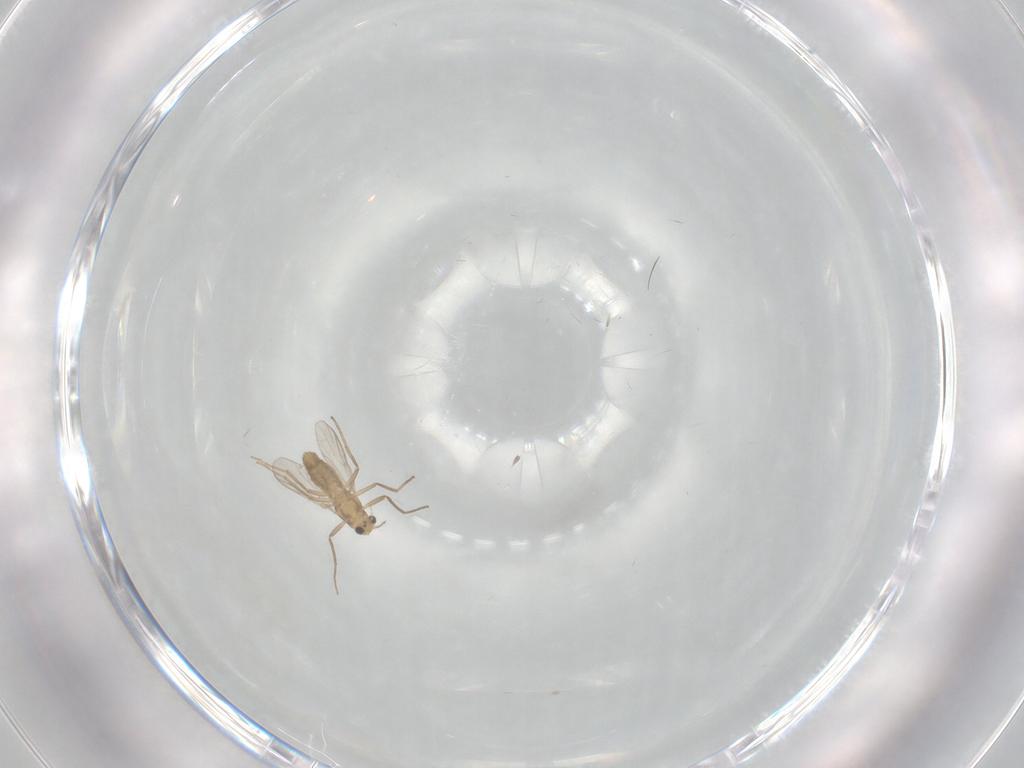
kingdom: Animalia
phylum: Arthropoda
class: Insecta
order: Diptera
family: Chironomidae
